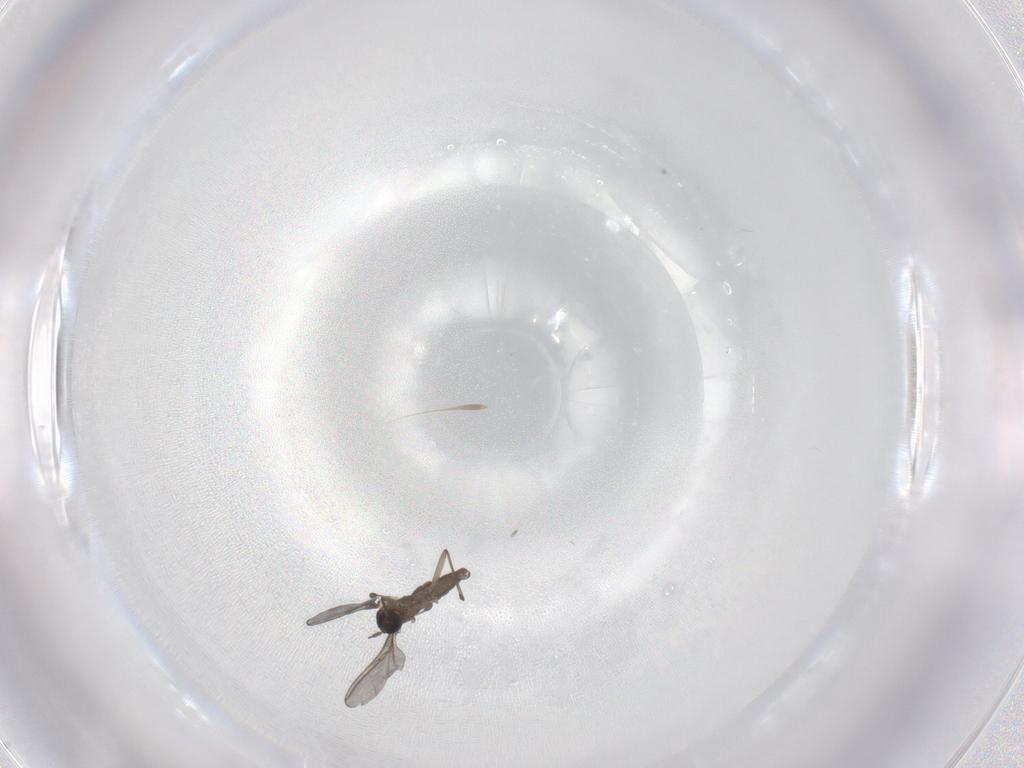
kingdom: Animalia
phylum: Arthropoda
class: Insecta
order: Diptera
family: Sciaridae
